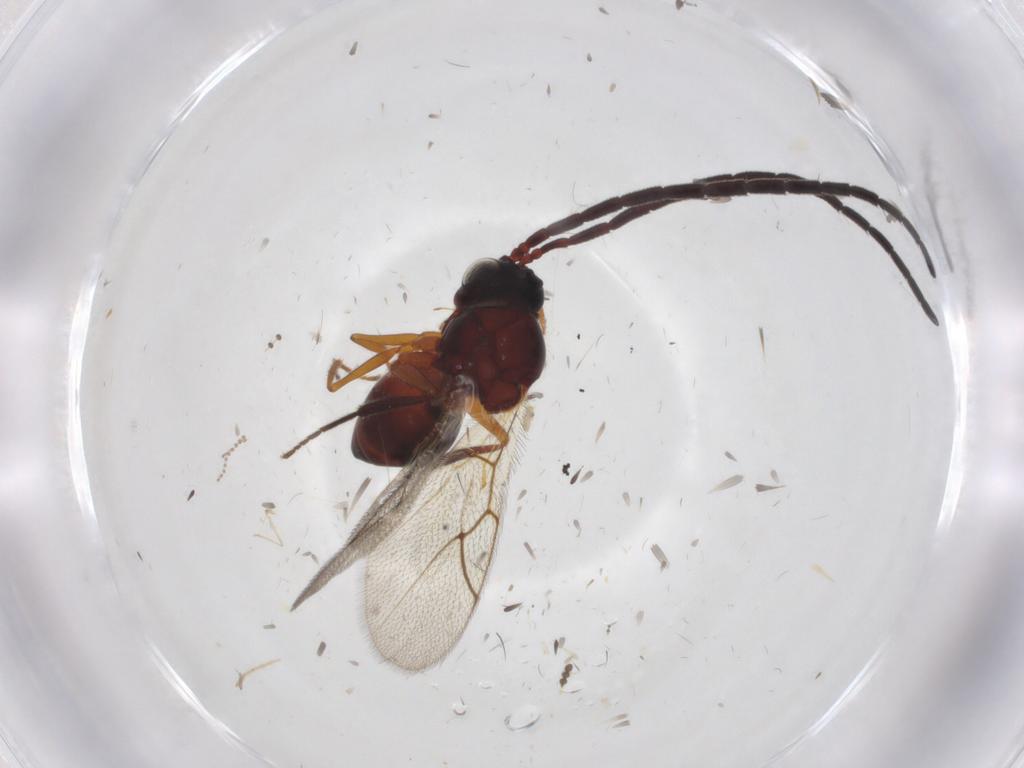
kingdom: Animalia
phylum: Arthropoda
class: Insecta
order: Hymenoptera
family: Figitidae
